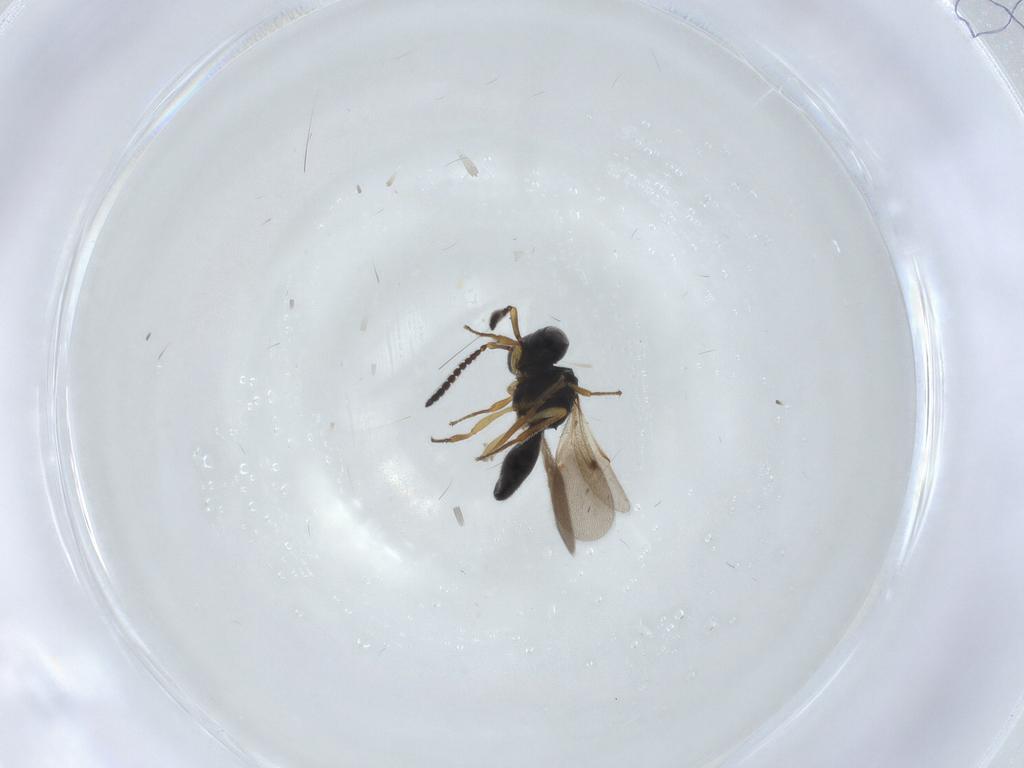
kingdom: Animalia
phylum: Arthropoda
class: Insecta
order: Hymenoptera
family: Scelionidae
